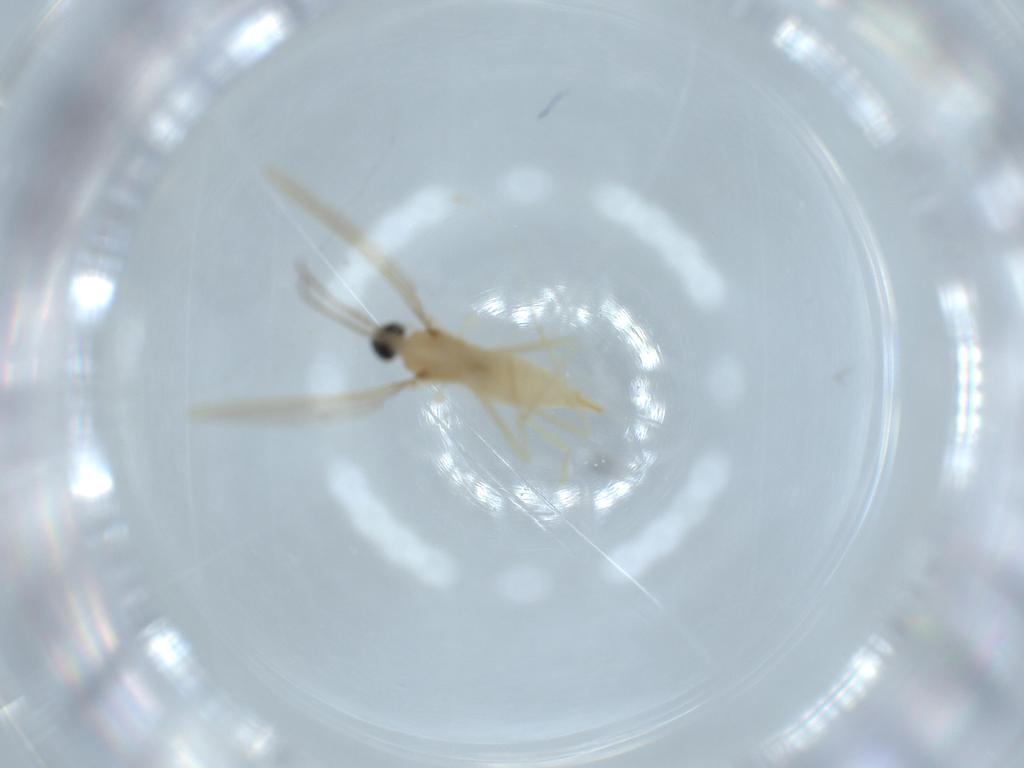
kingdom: Animalia
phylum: Arthropoda
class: Insecta
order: Diptera
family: Cecidomyiidae
